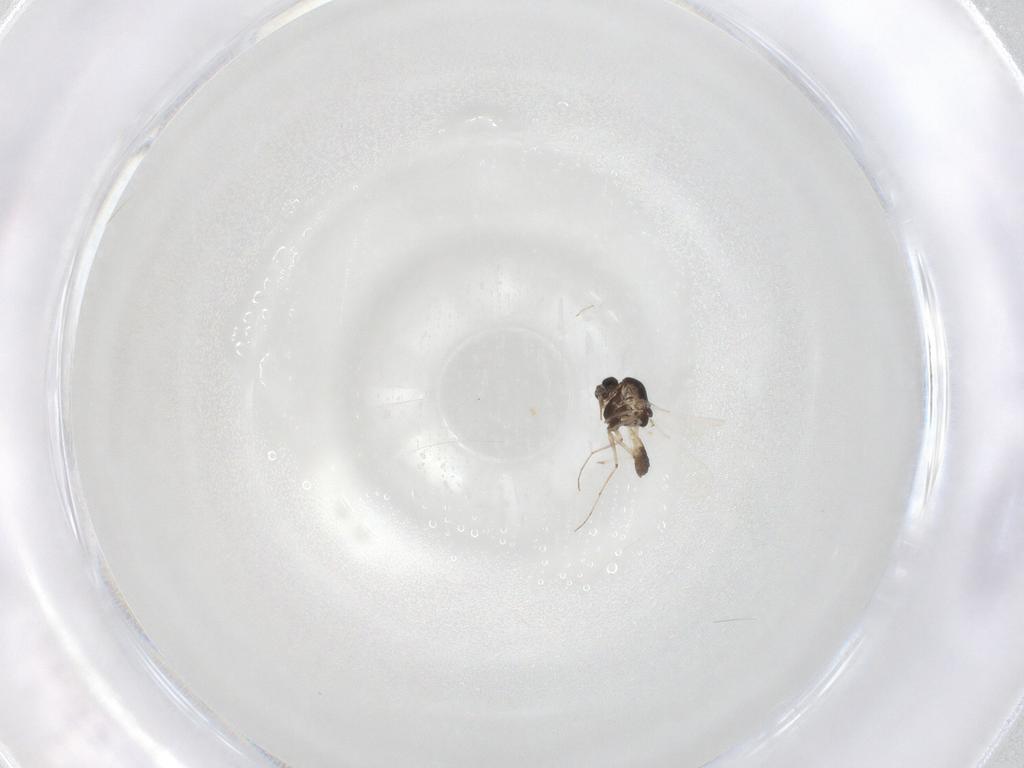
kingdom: Animalia
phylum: Arthropoda
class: Insecta
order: Diptera
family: Chironomidae
